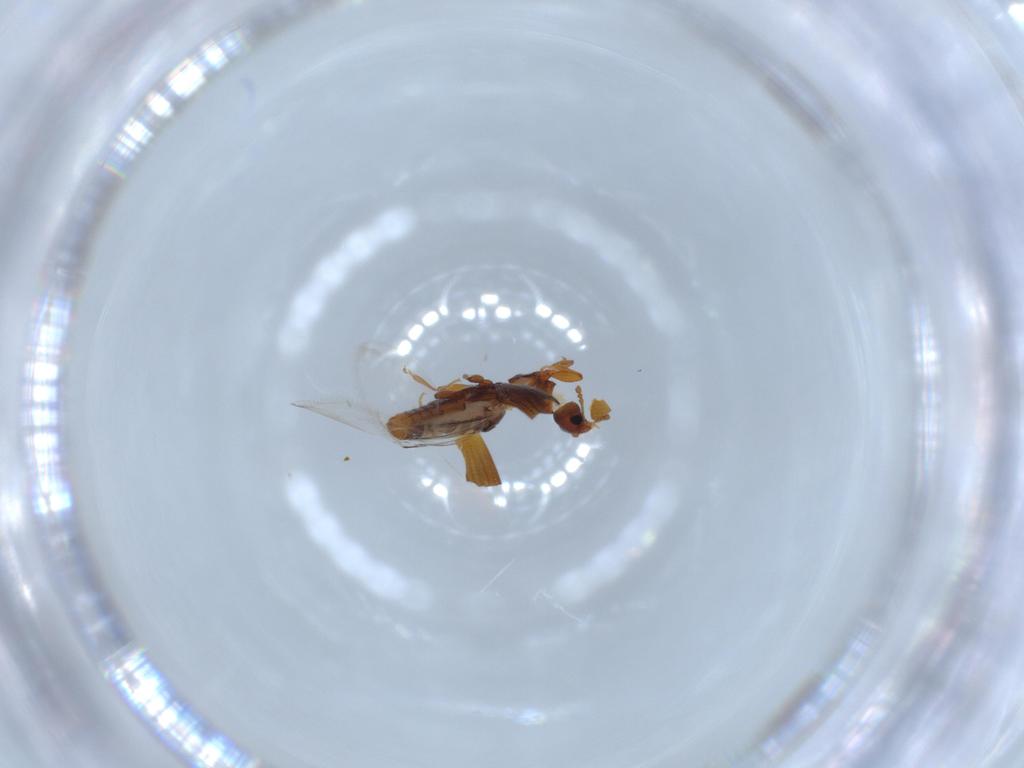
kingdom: Animalia
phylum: Arthropoda
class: Insecta
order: Coleoptera
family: Latridiidae
